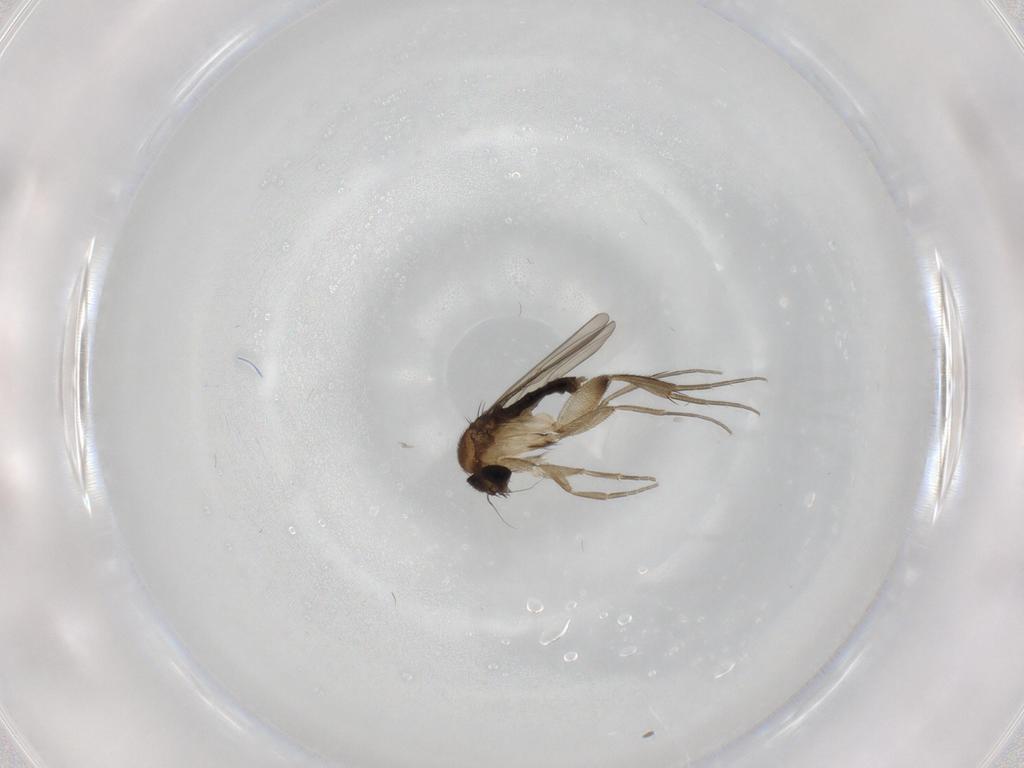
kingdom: Animalia
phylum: Arthropoda
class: Insecta
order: Diptera
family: Phoridae
